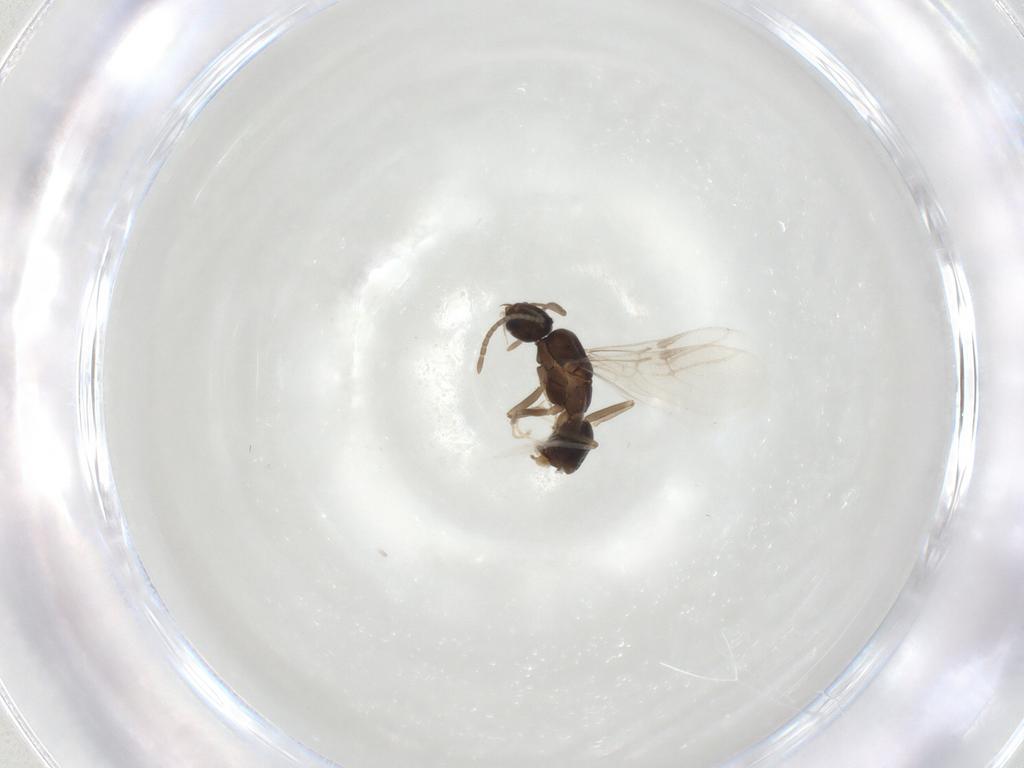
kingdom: Animalia
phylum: Arthropoda
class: Insecta
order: Hymenoptera
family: Formicidae
